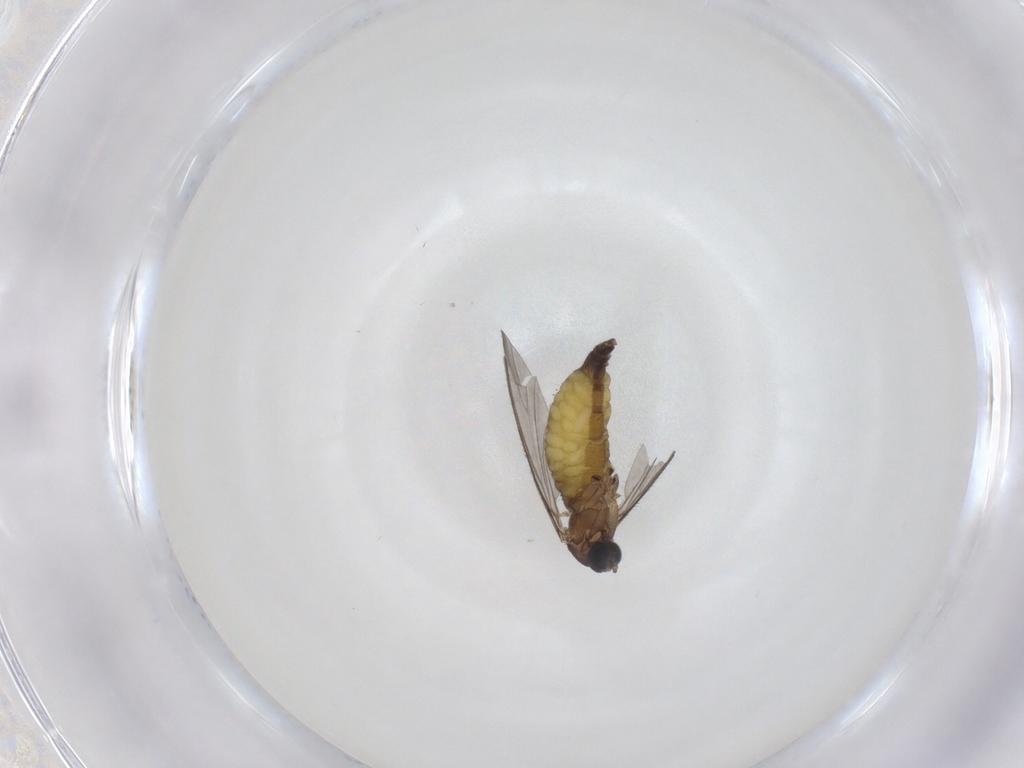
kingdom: Animalia
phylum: Arthropoda
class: Insecta
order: Diptera
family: Sciaridae
